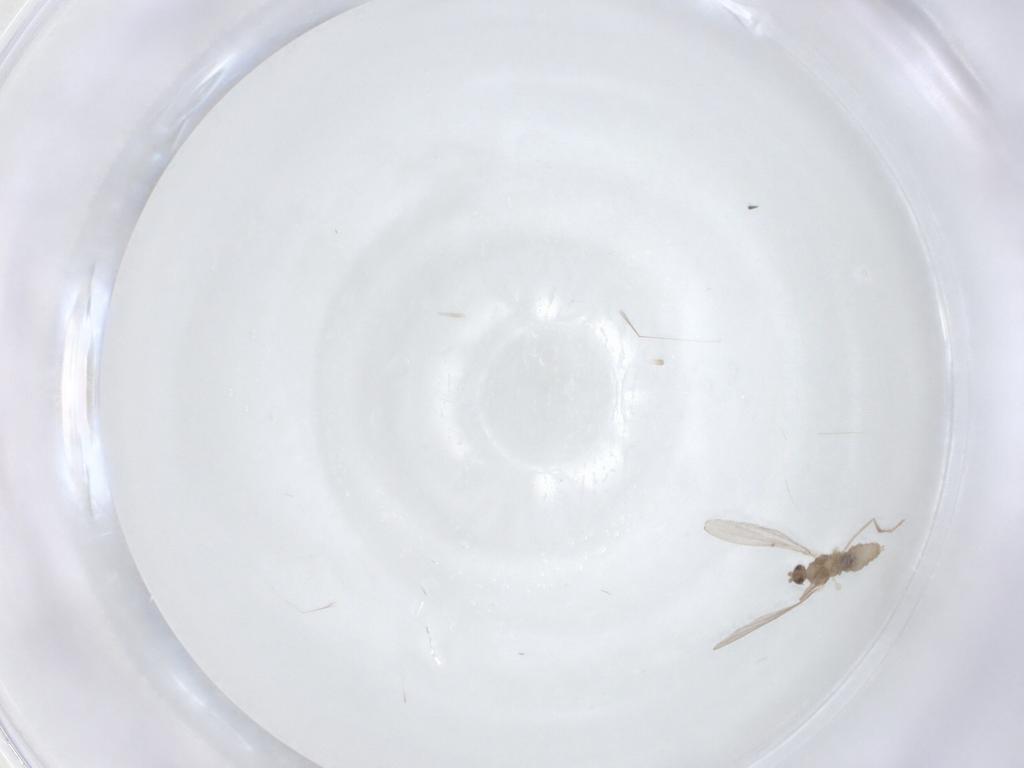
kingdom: Animalia
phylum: Arthropoda
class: Insecta
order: Diptera
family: Cecidomyiidae
